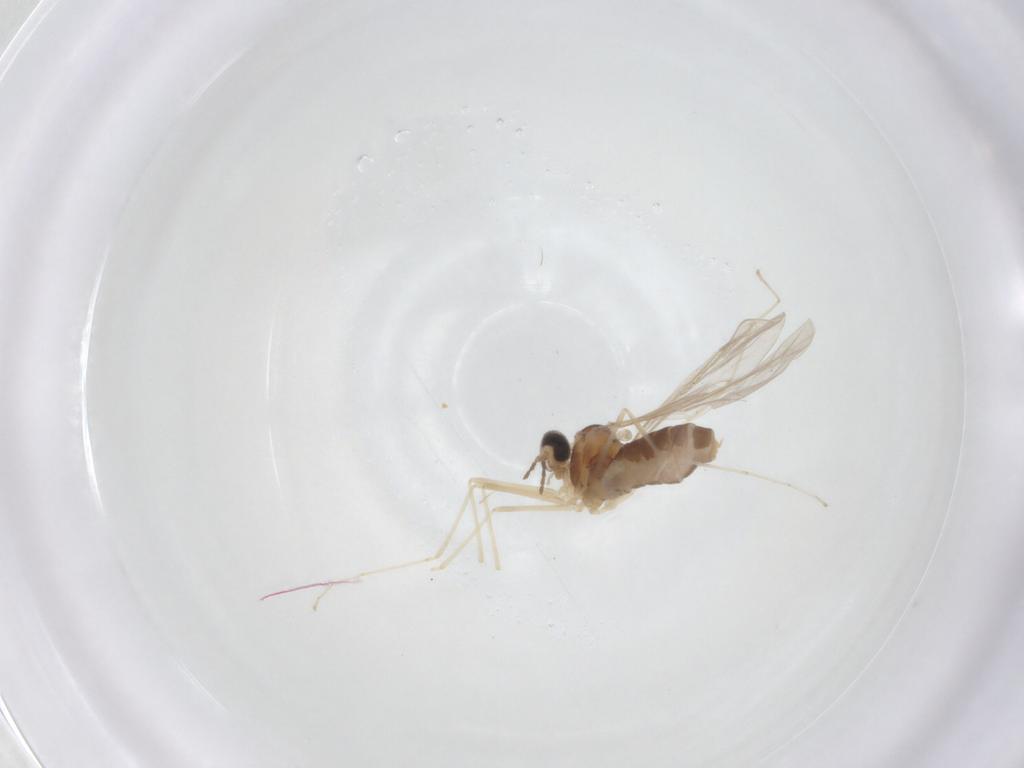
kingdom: Animalia
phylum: Arthropoda
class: Insecta
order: Diptera
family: Cecidomyiidae
